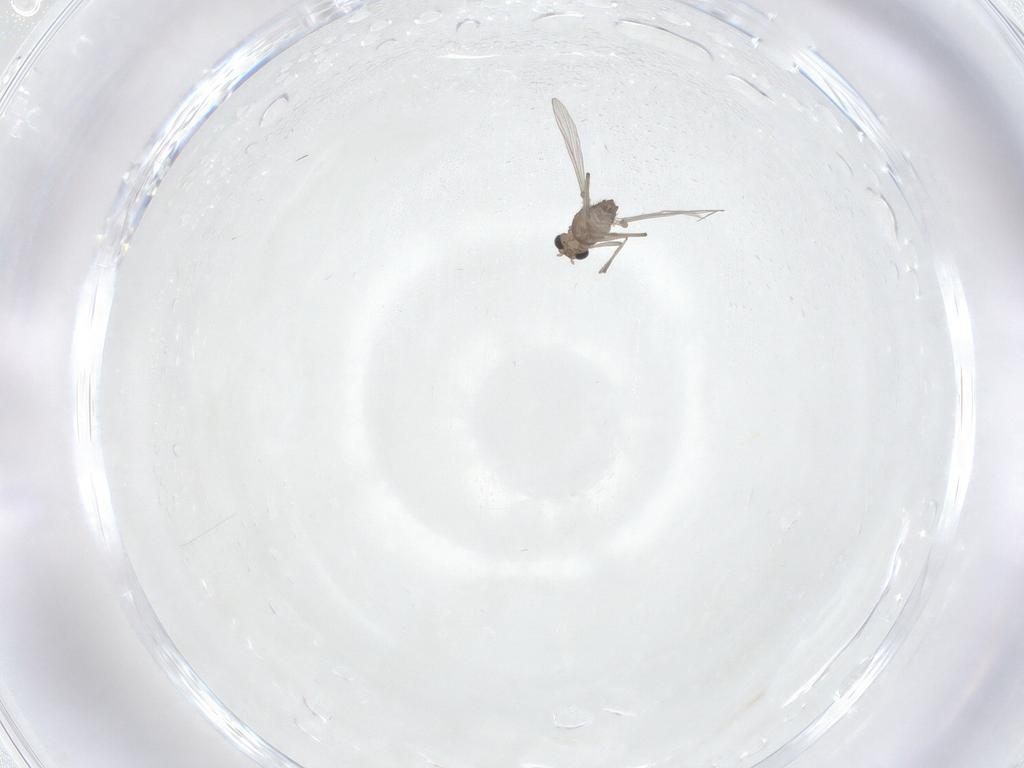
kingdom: Animalia
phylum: Arthropoda
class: Insecta
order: Diptera
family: Chironomidae
